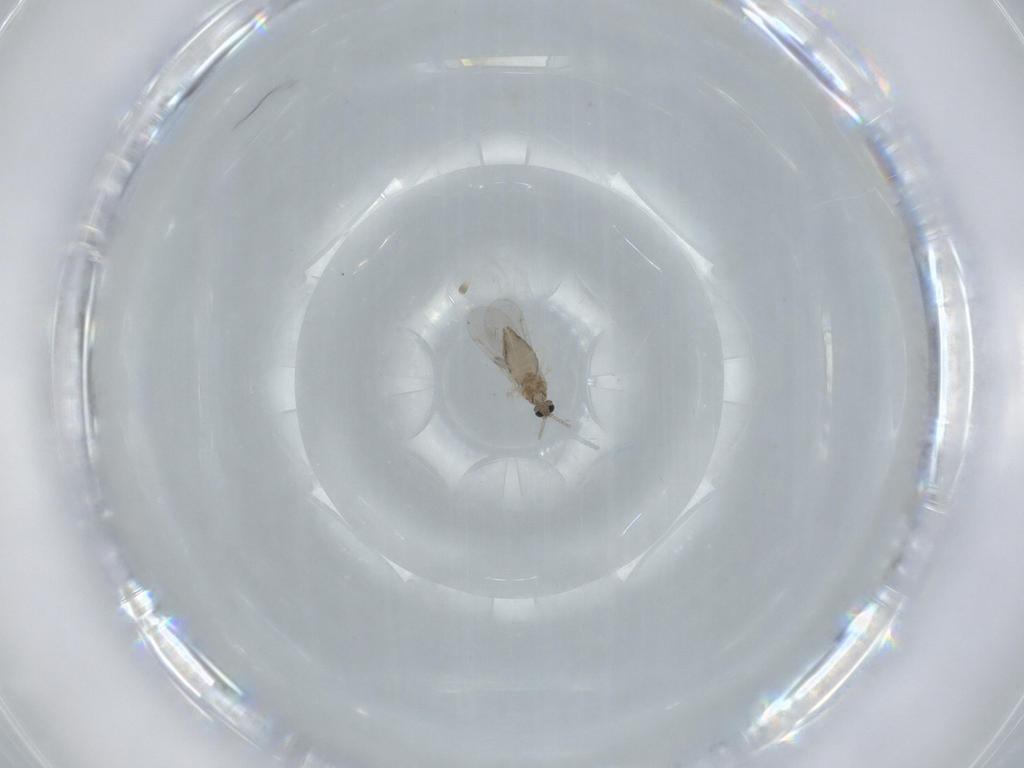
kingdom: Animalia
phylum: Arthropoda
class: Insecta
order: Diptera
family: Cecidomyiidae
